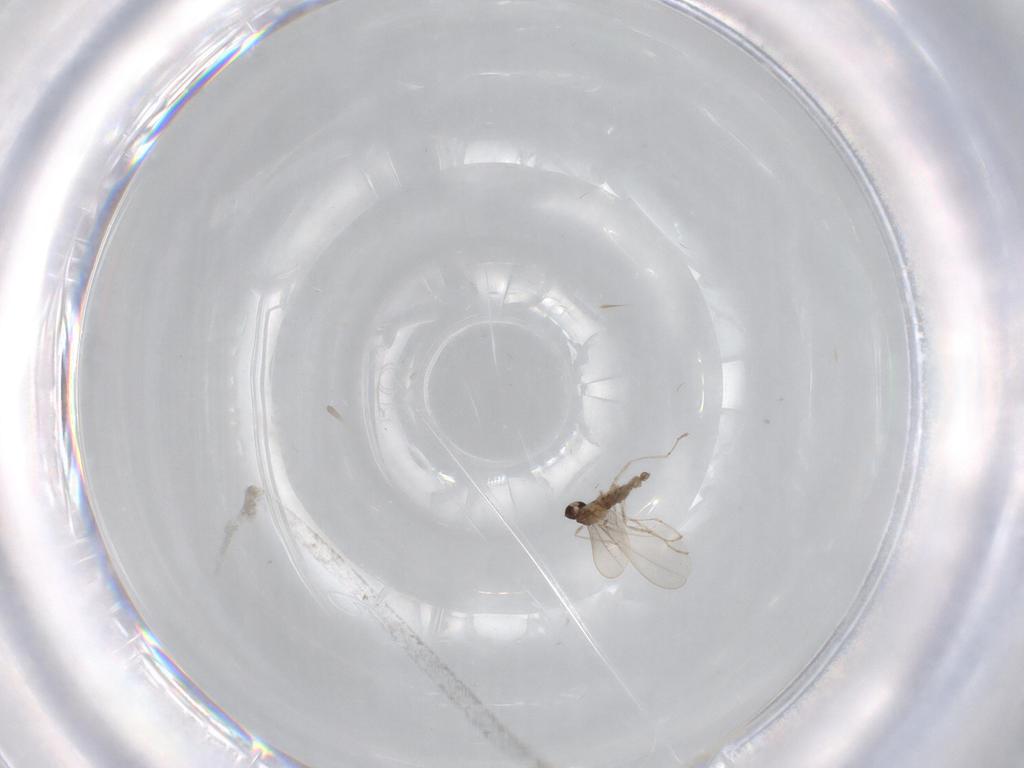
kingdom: Animalia
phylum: Arthropoda
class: Insecta
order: Diptera
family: Cecidomyiidae
